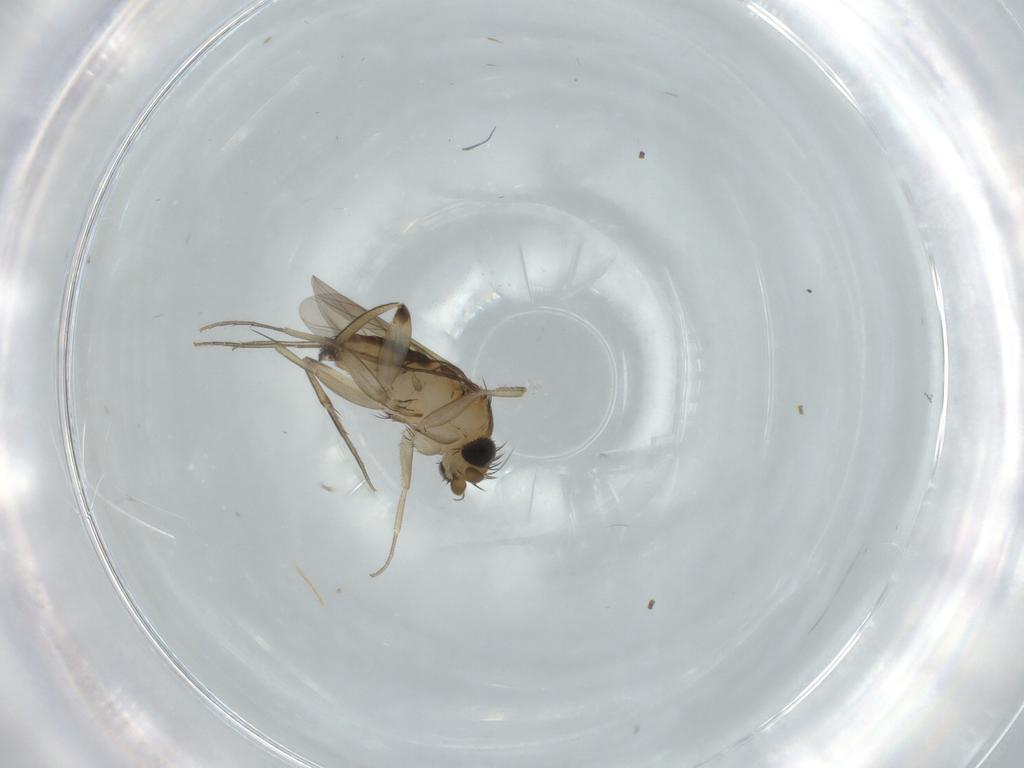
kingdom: Animalia
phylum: Arthropoda
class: Insecta
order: Diptera
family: Phoridae
